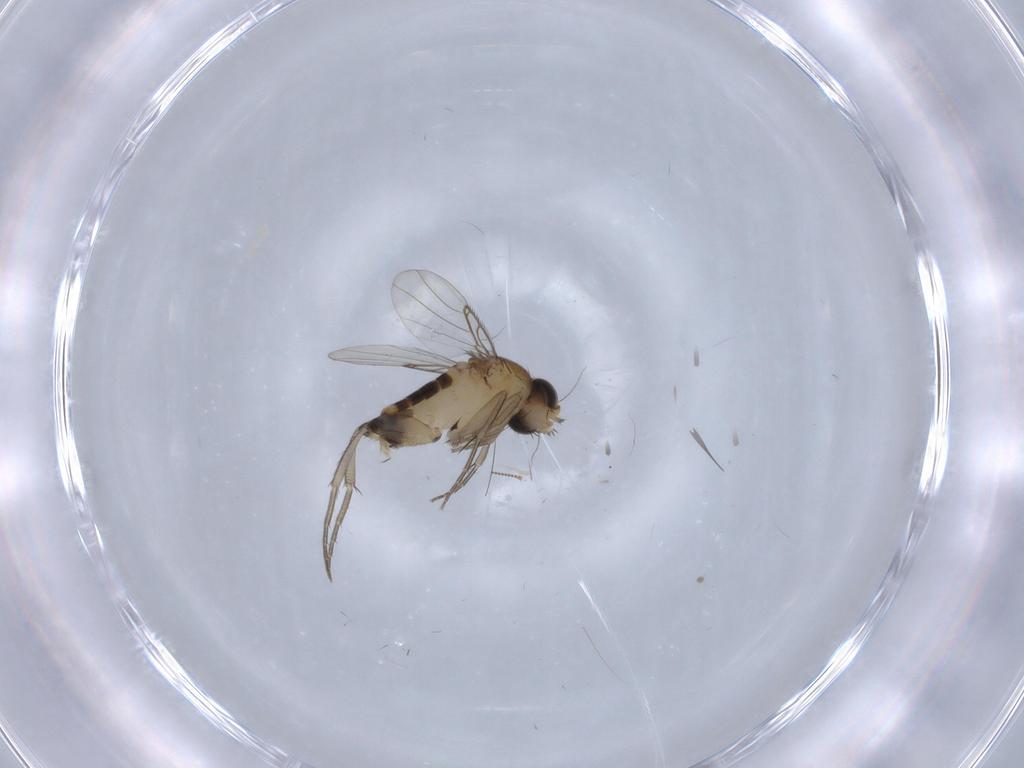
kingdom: Animalia
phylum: Arthropoda
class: Insecta
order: Diptera
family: Phoridae
